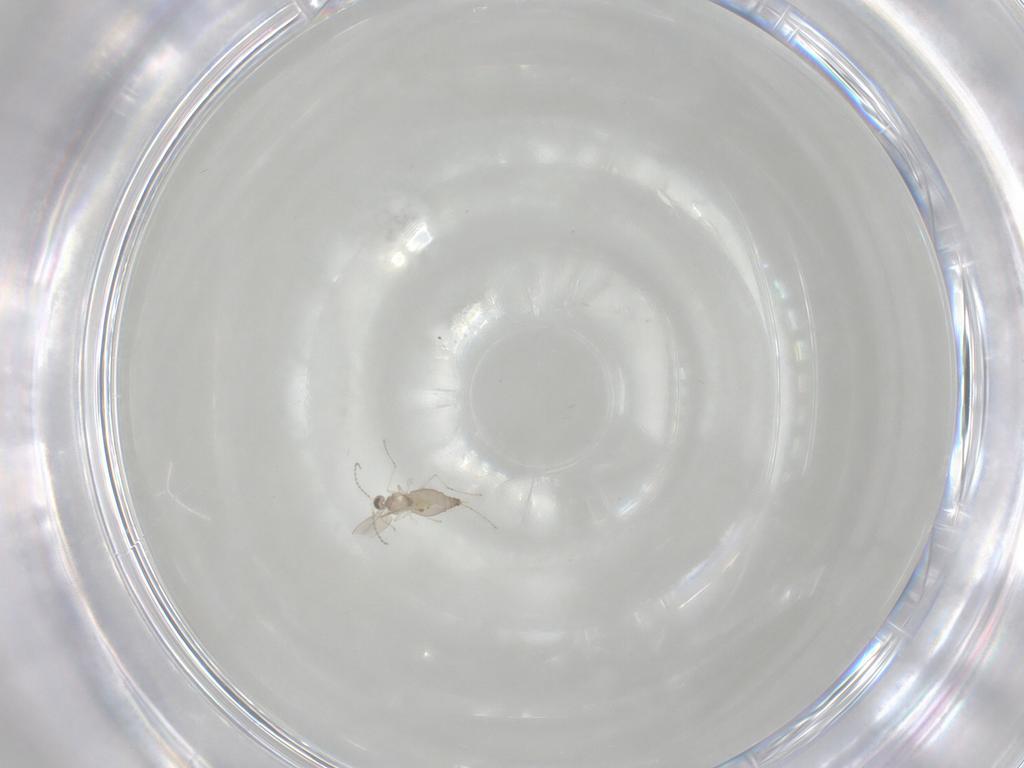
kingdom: Animalia
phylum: Arthropoda
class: Insecta
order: Diptera
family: Cecidomyiidae
